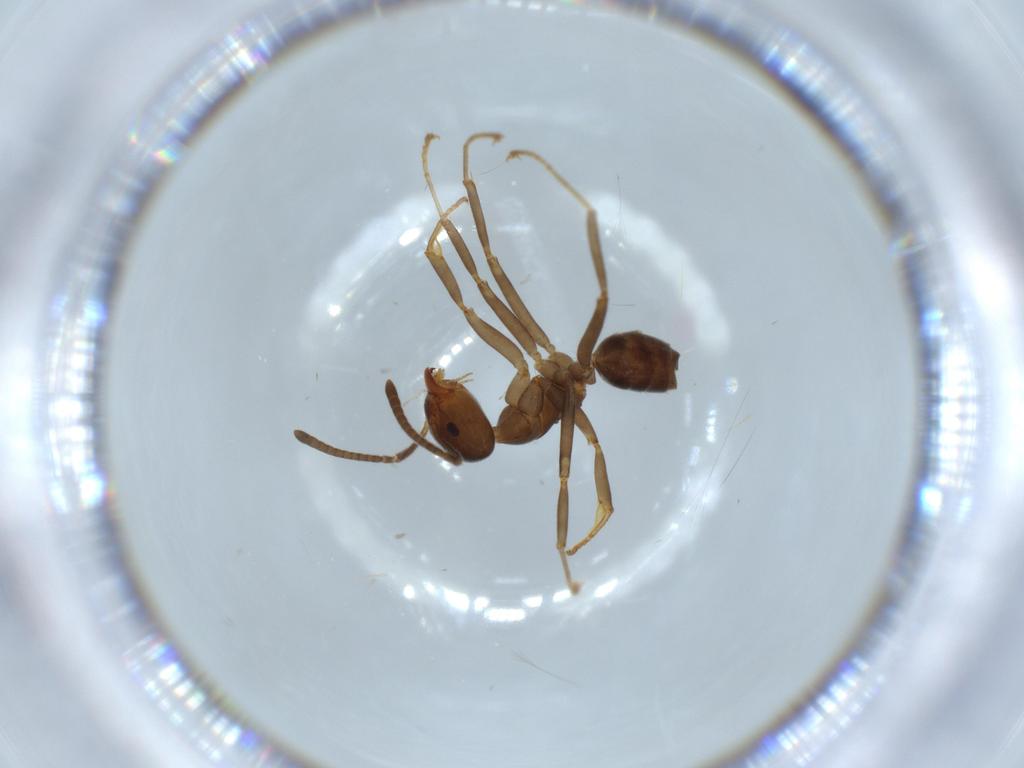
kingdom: Animalia
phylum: Arthropoda
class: Insecta
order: Hymenoptera
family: Formicidae
